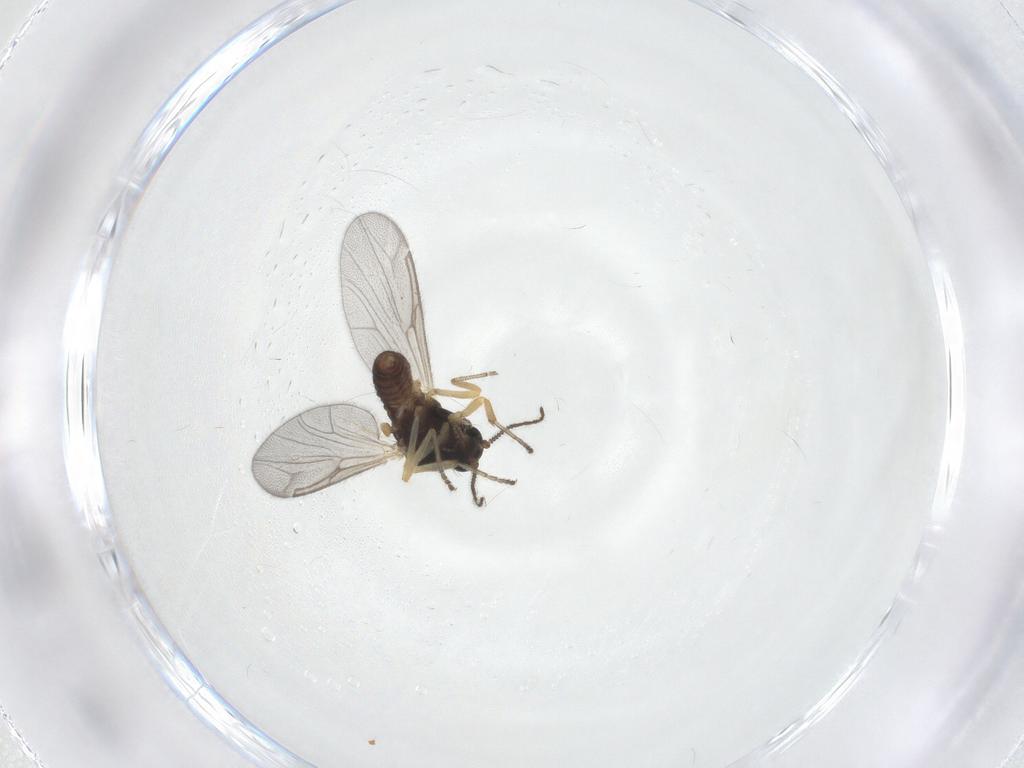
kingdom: Animalia
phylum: Arthropoda
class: Insecta
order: Diptera
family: Ceratopogonidae
